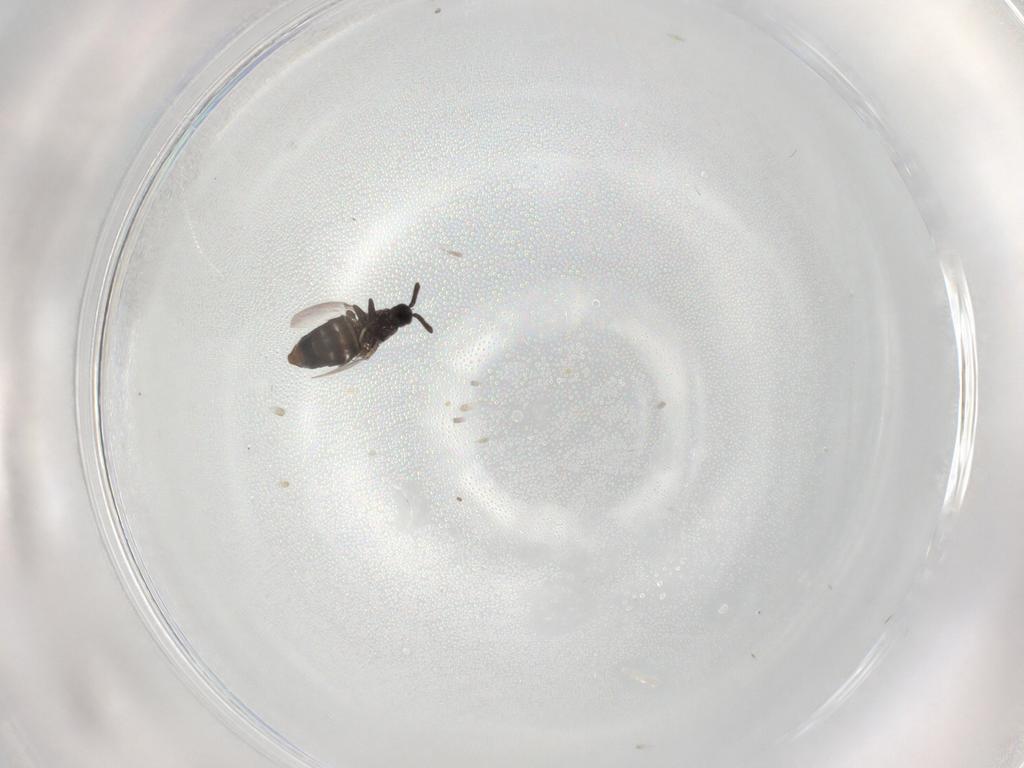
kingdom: Animalia
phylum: Arthropoda
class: Insecta
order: Diptera
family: Scatopsidae
